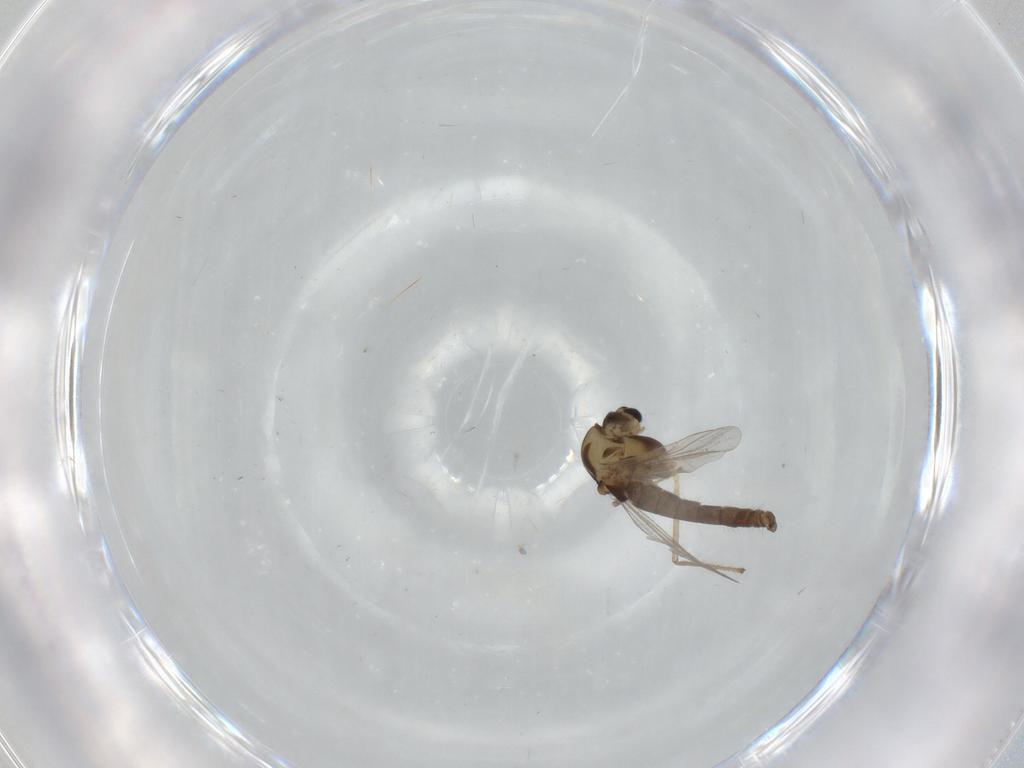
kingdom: Animalia
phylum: Arthropoda
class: Insecta
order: Diptera
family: Chironomidae
